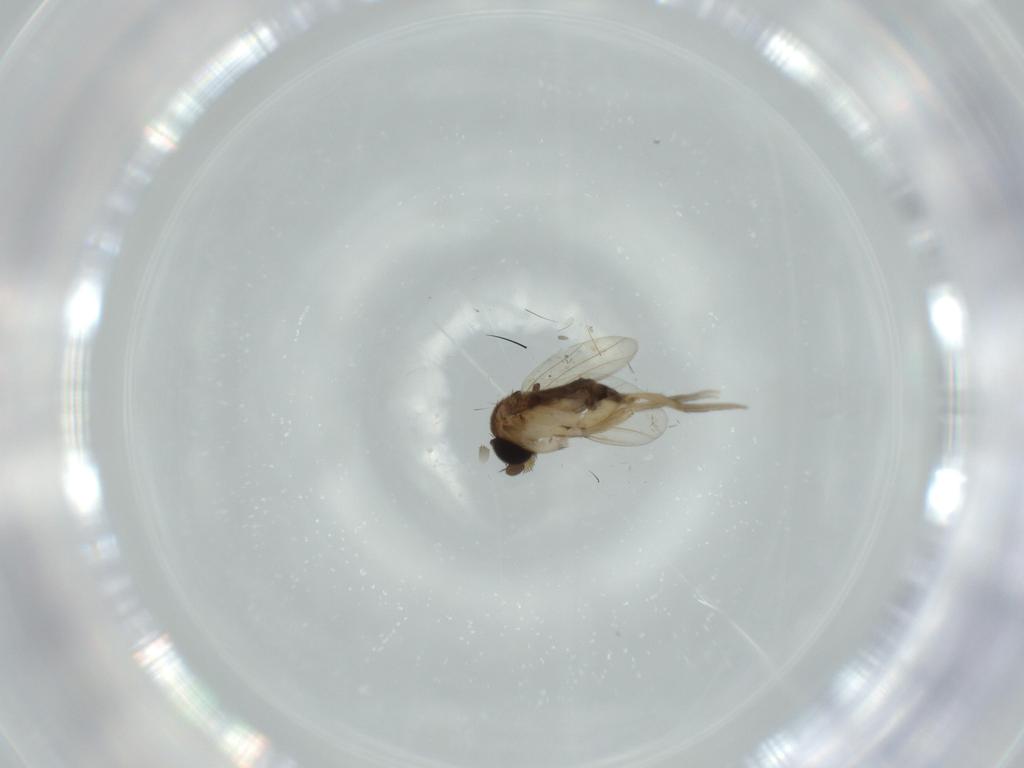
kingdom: Animalia
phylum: Arthropoda
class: Insecta
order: Diptera
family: Phoridae
